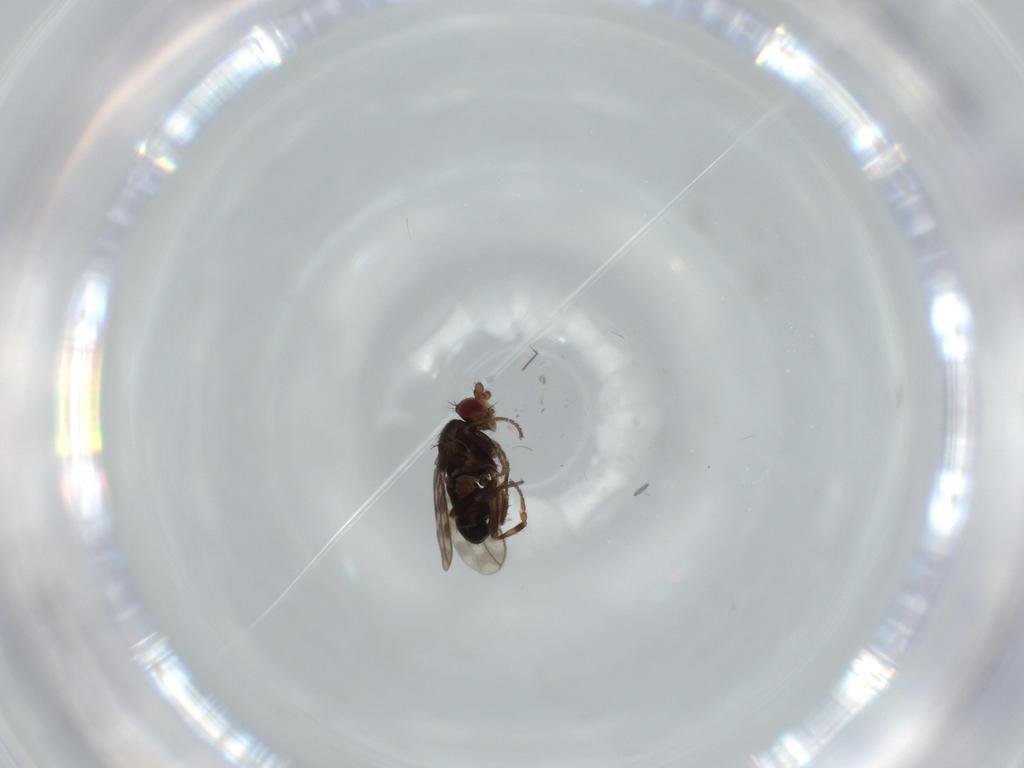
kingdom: Animalia
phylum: Arthropoda
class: Insecta
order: Diptera
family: Sphaeroceridae
